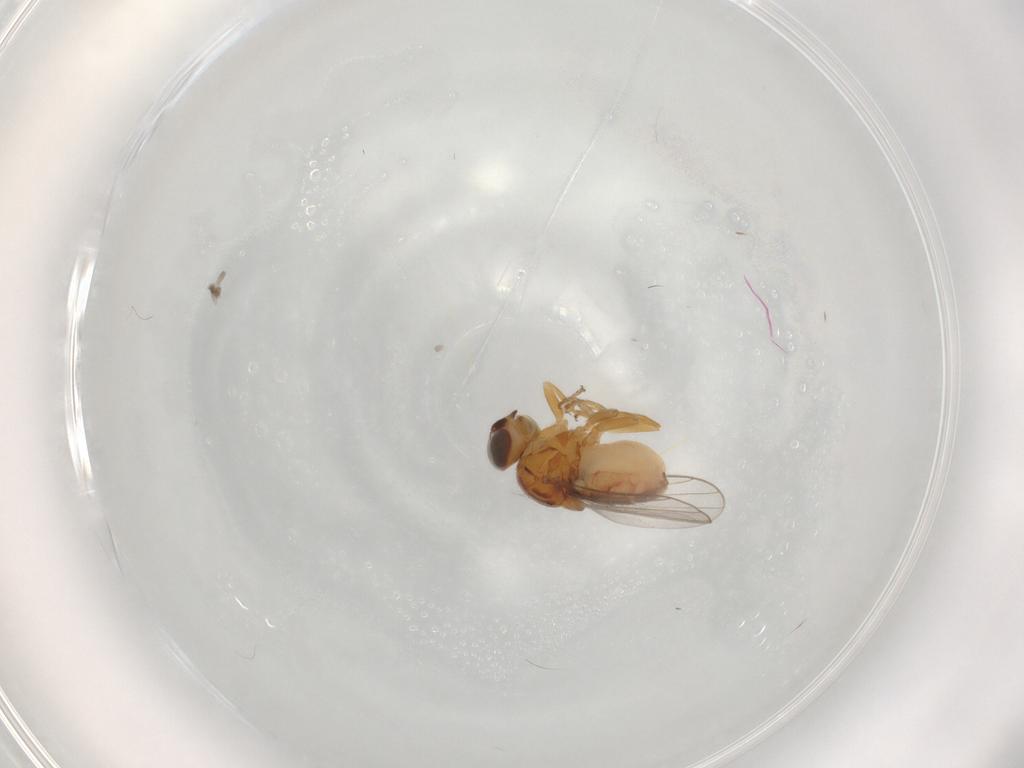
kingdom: Animalia
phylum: Arthropoda
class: Insecta
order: Diptera
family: Chloropidae
